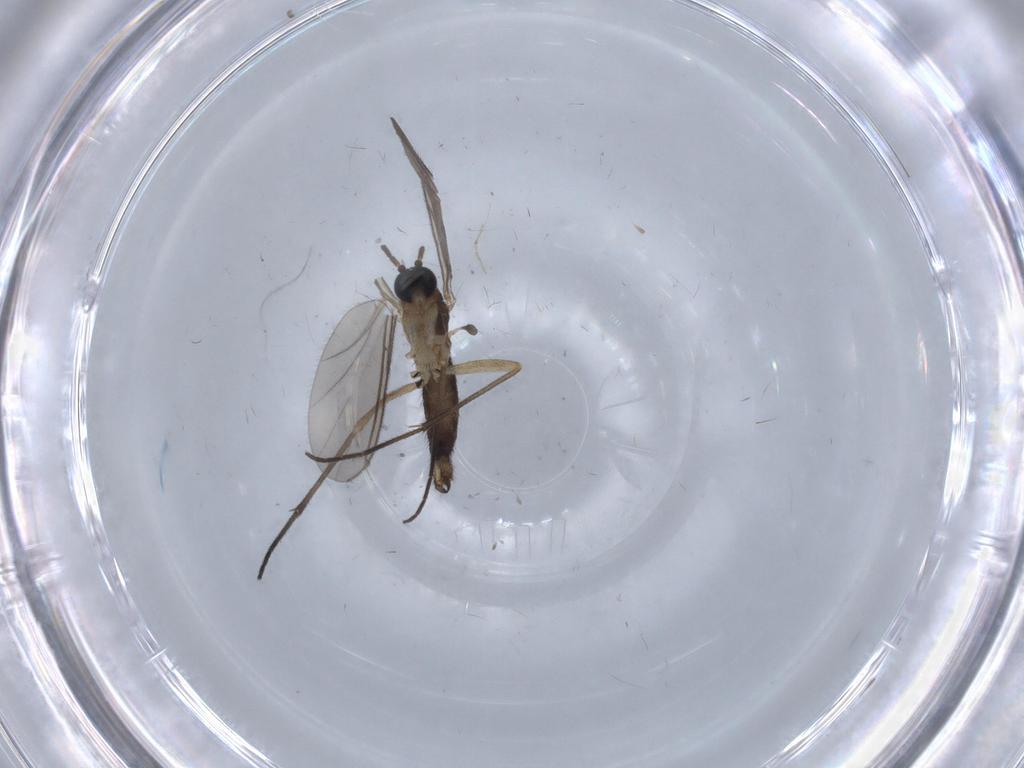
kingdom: Animalia
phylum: Arthropoda
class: Insecta
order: Diptera
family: Sciaridae
